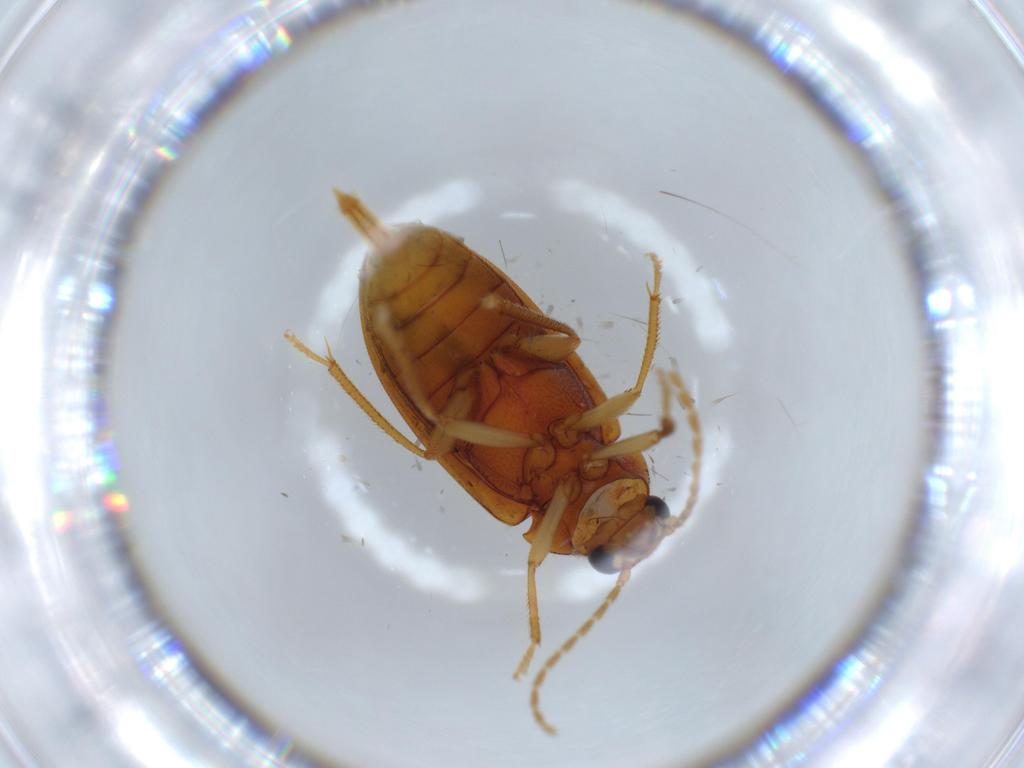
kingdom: Animalia
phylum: Arthropoda
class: Insecta
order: Coleoptera
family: Ptilodactylidae
